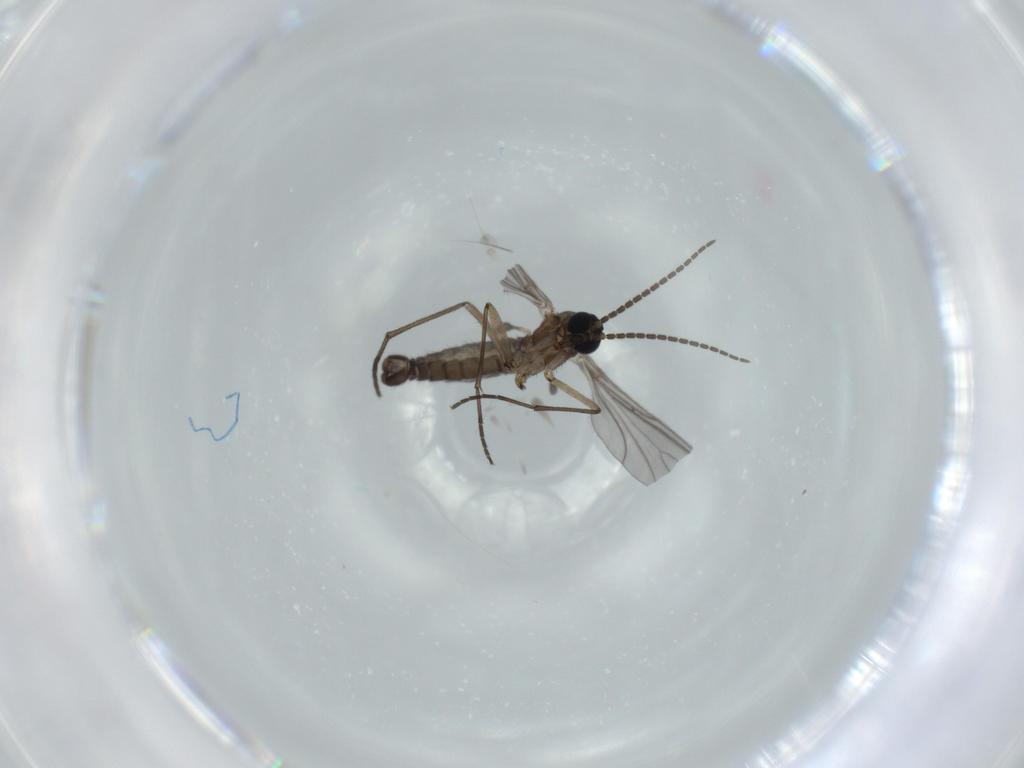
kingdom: Animalia
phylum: Arthropoda
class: Insecta
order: Diptera
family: Sciaridae
